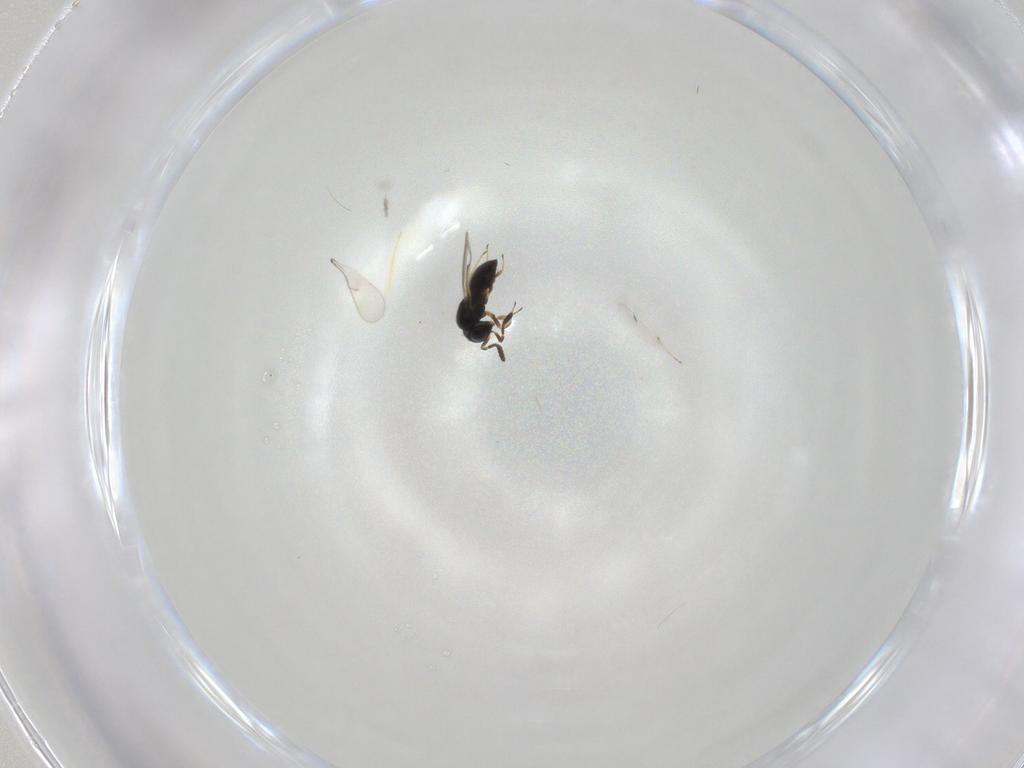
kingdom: Animalia
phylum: Arthropoda
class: Insecta
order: Hymenoptera
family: Scelionidae
